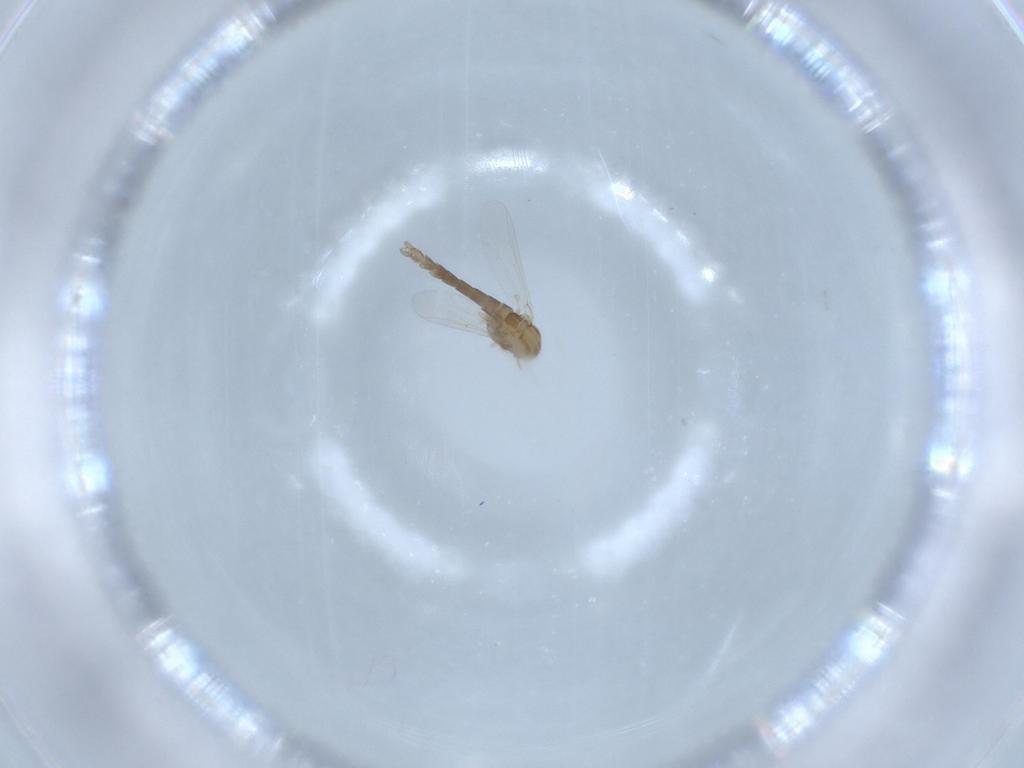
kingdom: Animalia
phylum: Arthropoda
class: Insecta
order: Diptera
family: Chironomidae
